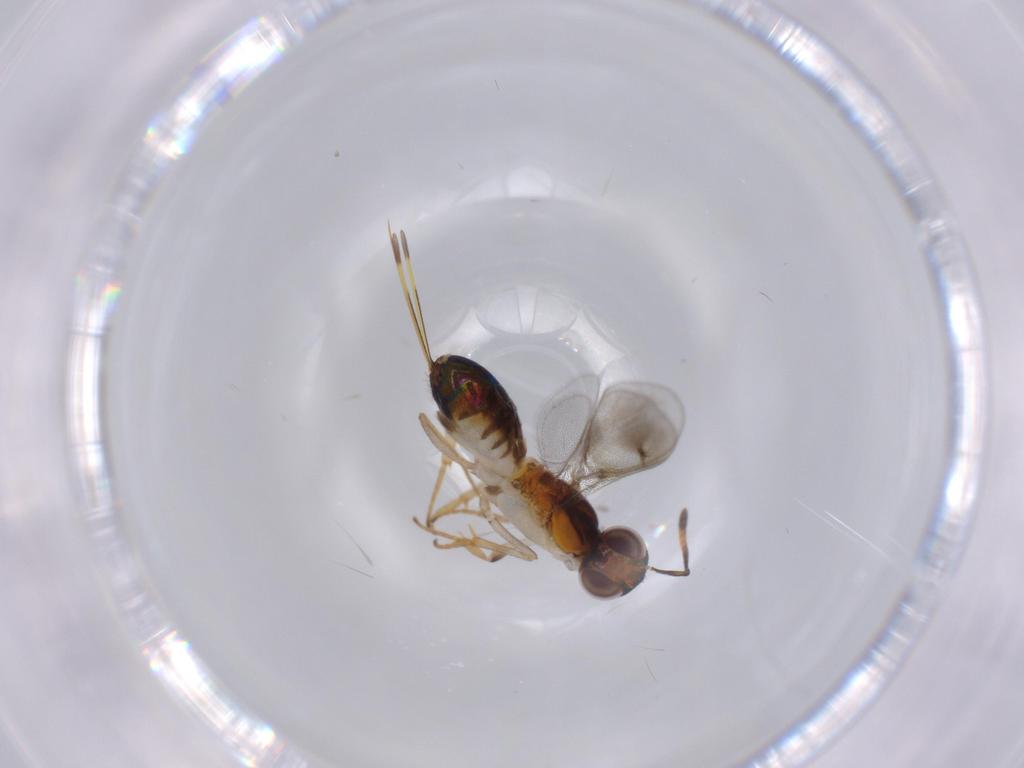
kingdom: Animalia
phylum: Arthropoda
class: Insecta
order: Hymenoptera
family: Pteromalidae
